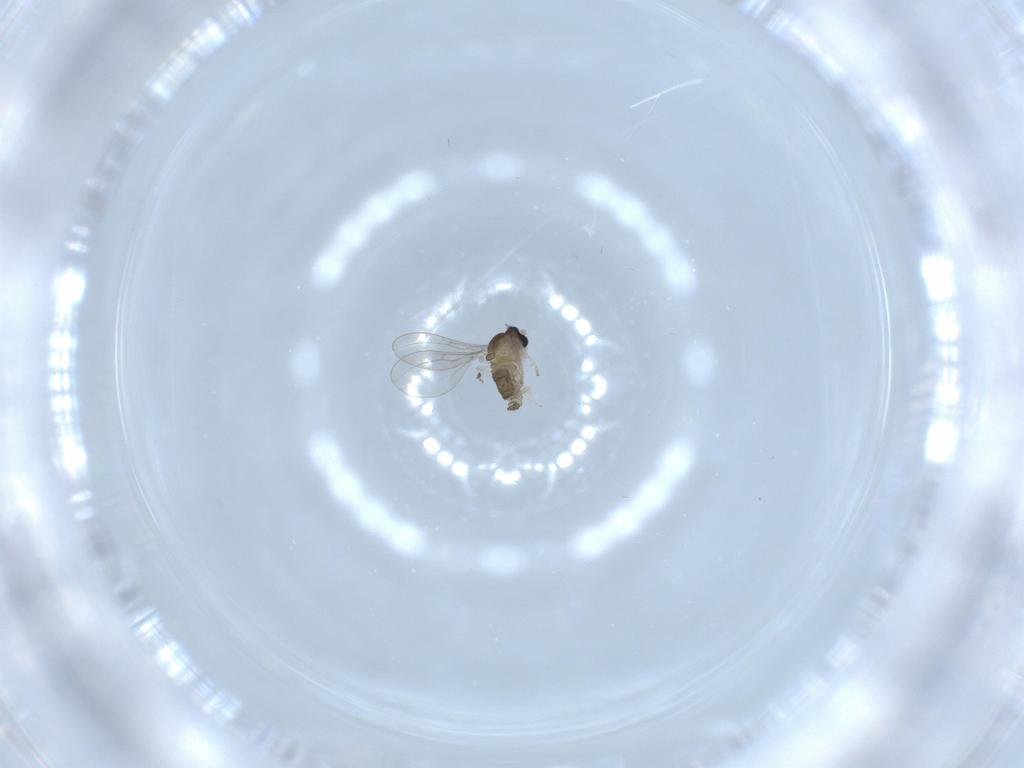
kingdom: Animalia
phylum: Arthropoda
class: Insecta
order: Diptera
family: Cecidomyiidae
